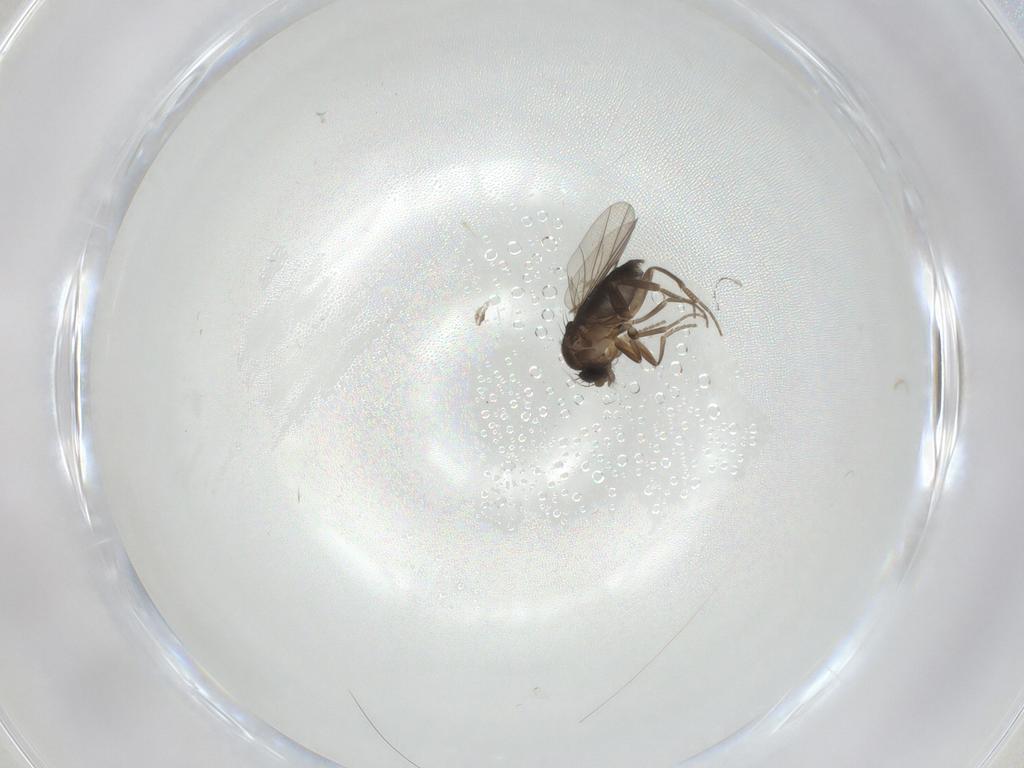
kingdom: Animalia
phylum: Arthropoda
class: Insecta
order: Diptera
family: Phoridae
